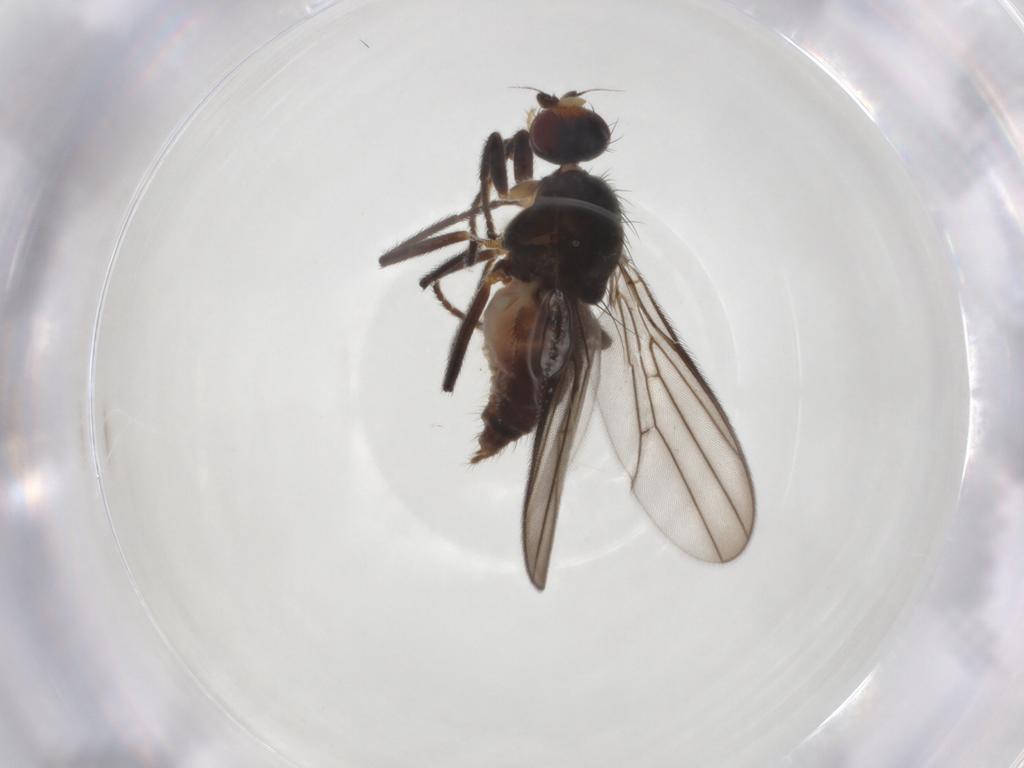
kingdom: Animalia
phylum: Arthropoda
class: Insecta
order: Diptera
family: Chloropidae
